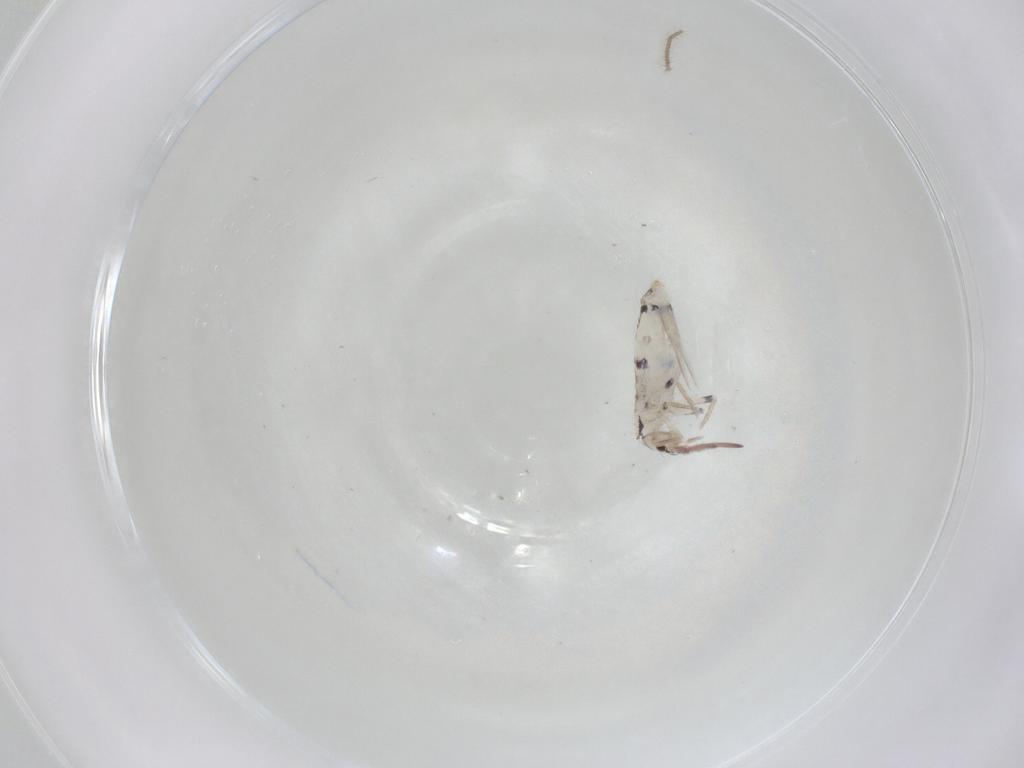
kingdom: Animalia
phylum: Arthropoda
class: Collembola
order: Entomobryomorpha
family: Entomobryidae
